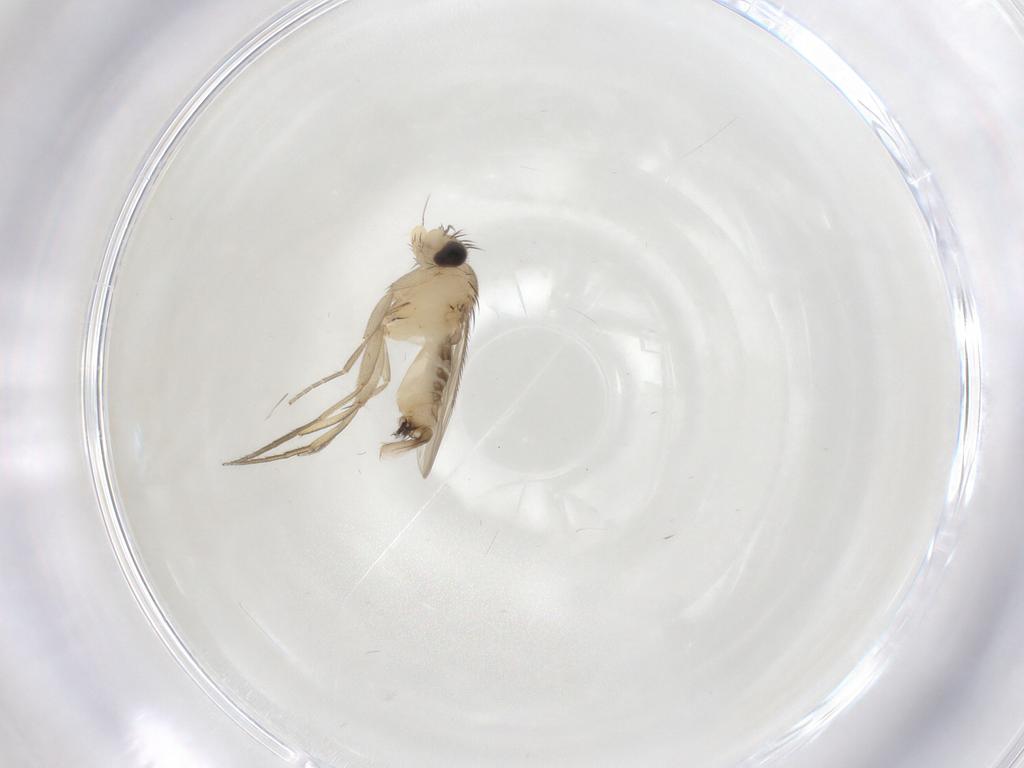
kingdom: Animalia
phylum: Arthropoda
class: Insecta
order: Diptera
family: Phoridae
